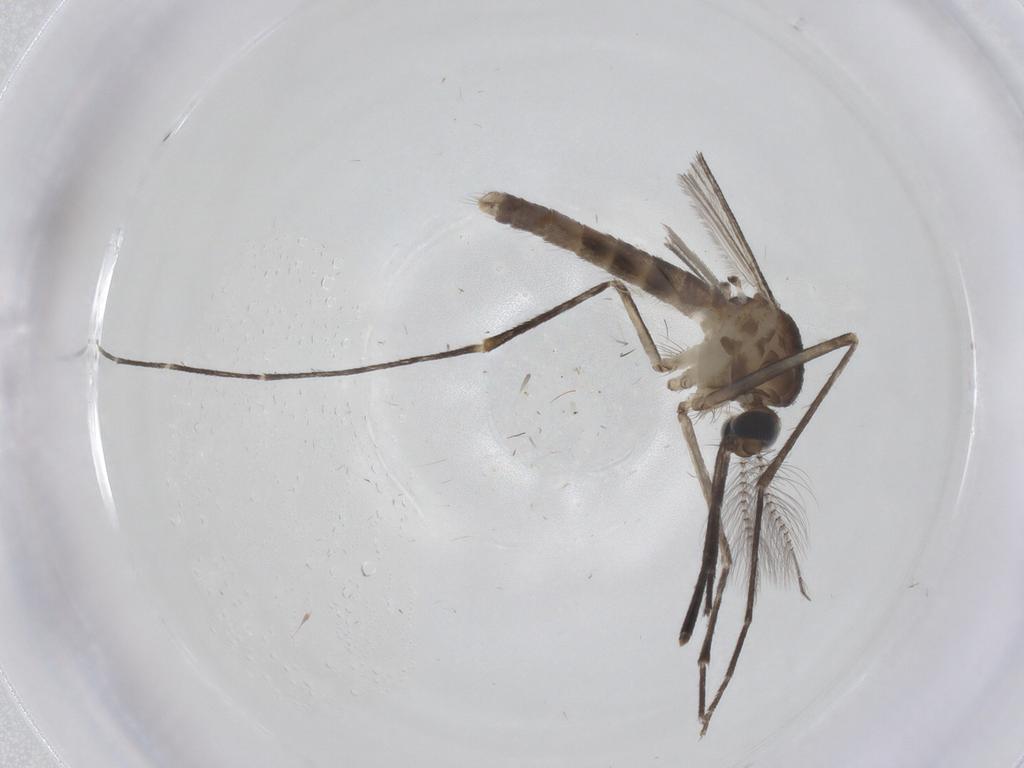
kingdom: Animalia
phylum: Arthropoda
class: Insecta
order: Diptera
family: Culicidae
